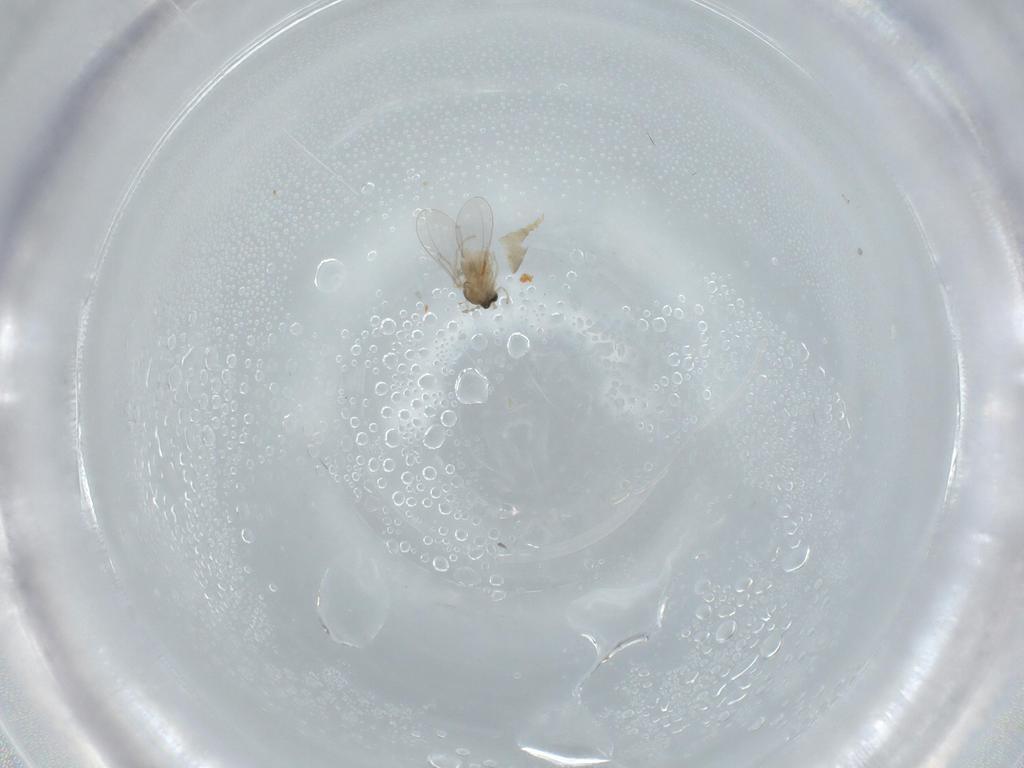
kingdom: Animalia
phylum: Arthropoda
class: Insecta
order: Diptera
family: Cecidomyiidae
